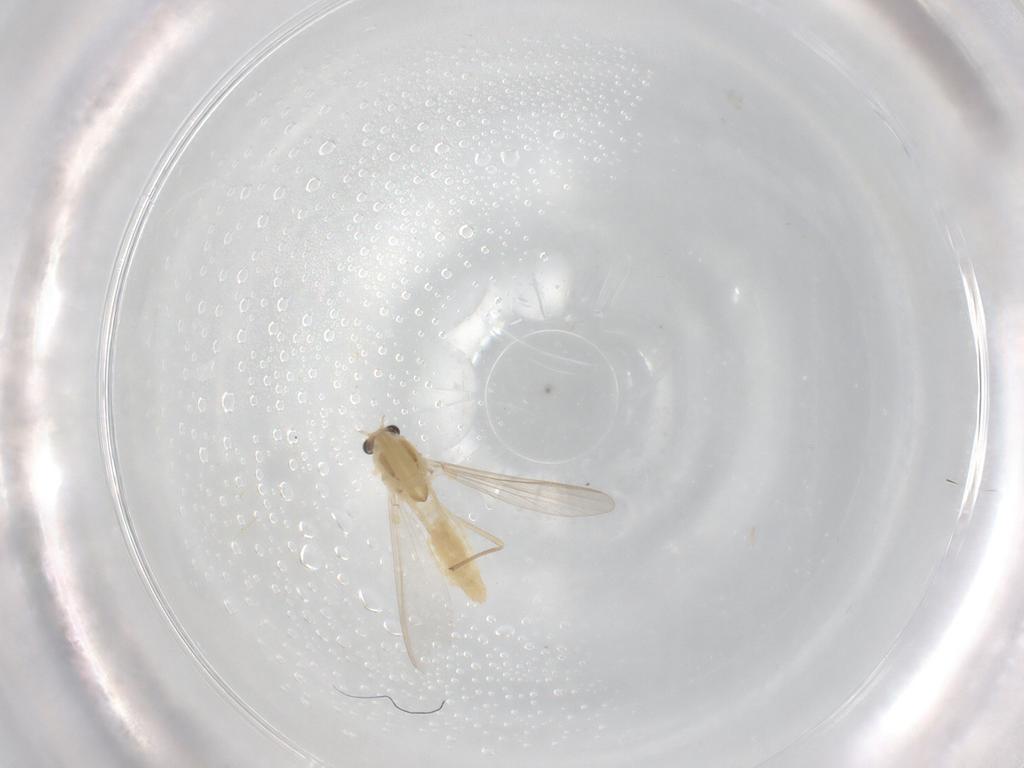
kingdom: Animalia
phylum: Arthropoda
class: Insecta
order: Diptera
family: Chironomidae
